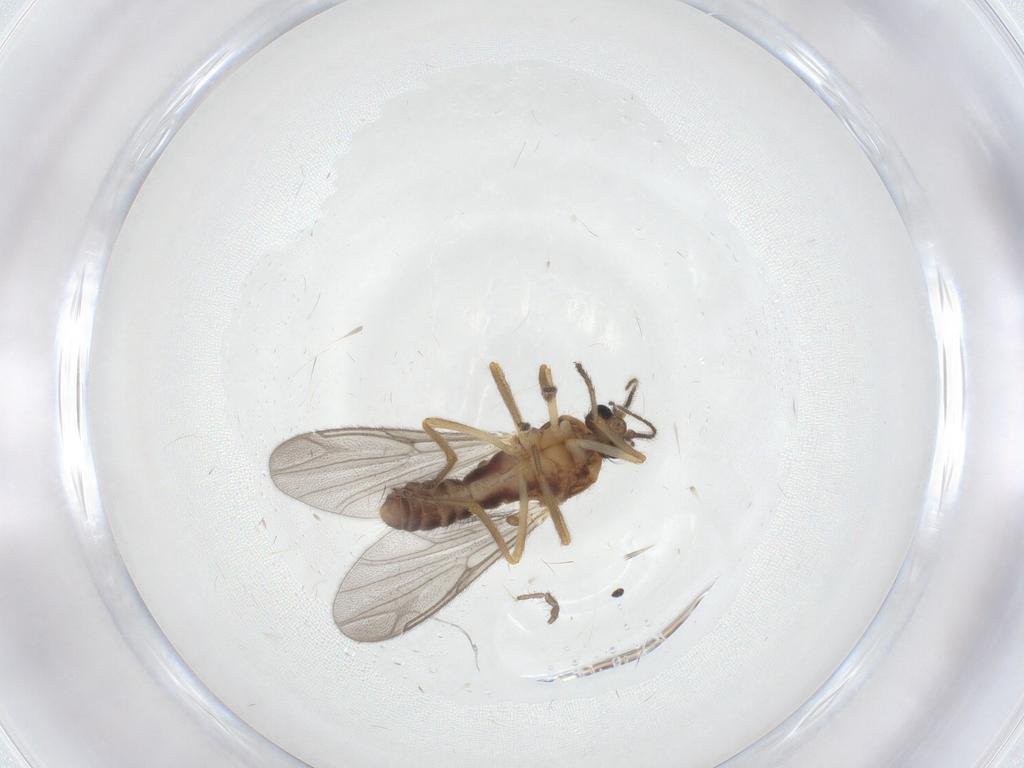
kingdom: Animalia
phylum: Arthropoda
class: Insecta
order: Diptera
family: Ceratopogonidae
